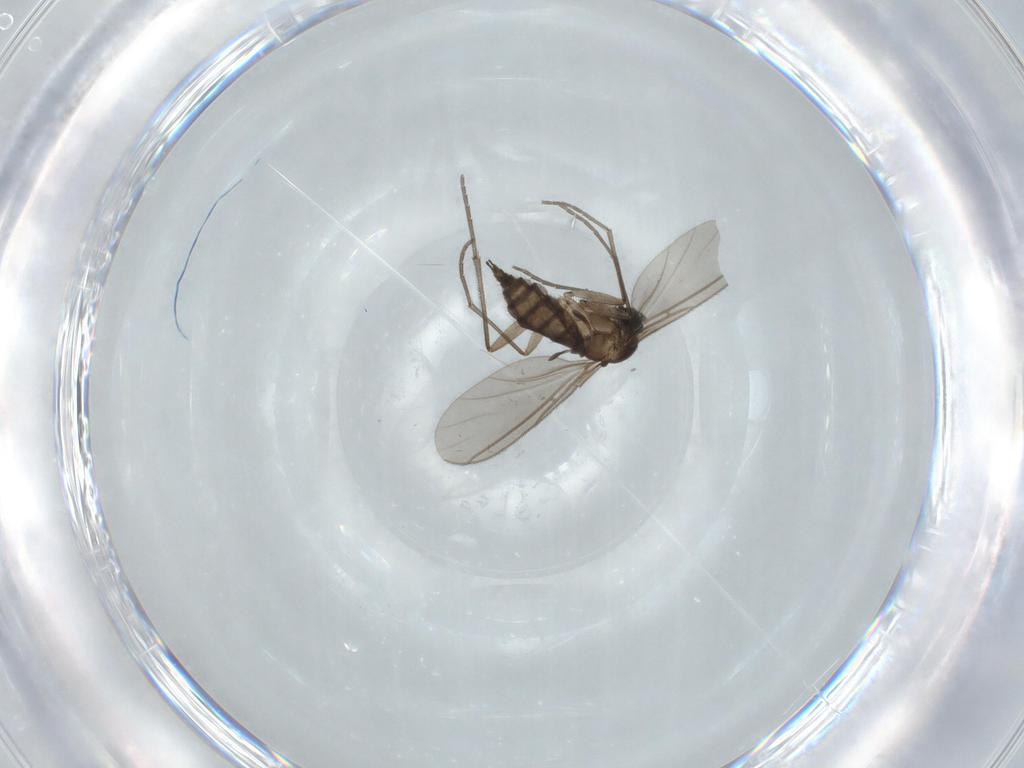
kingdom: Animalia
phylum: Arthropoda
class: Insecta
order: Diptera
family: Sciaridae
